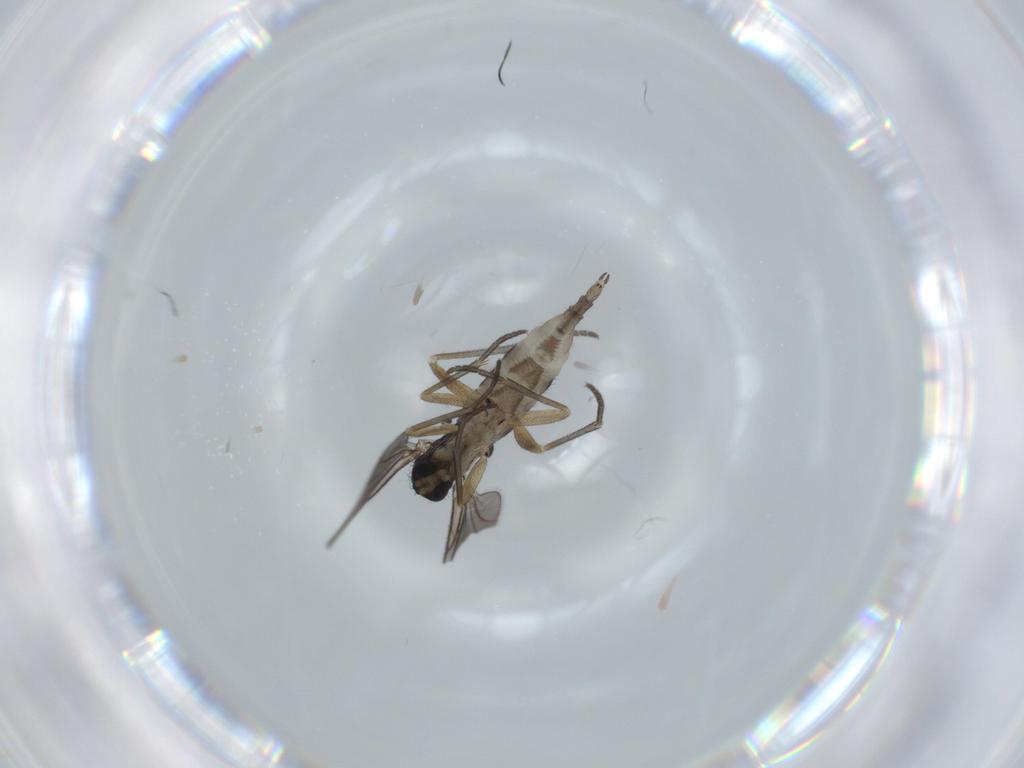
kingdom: Animalia
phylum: Arthropoda
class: Insecta
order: Diptera
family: Sciaridae
